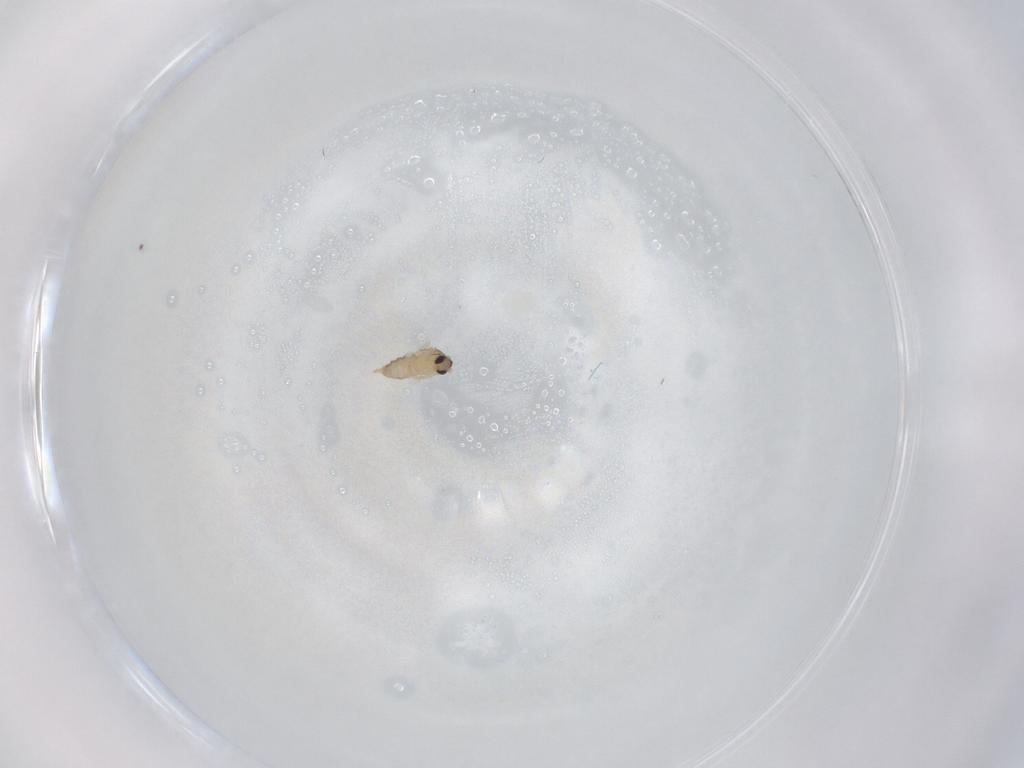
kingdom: Animalia
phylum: Arthropoda
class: Insecta
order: Diptera
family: Cecidomyiidae
